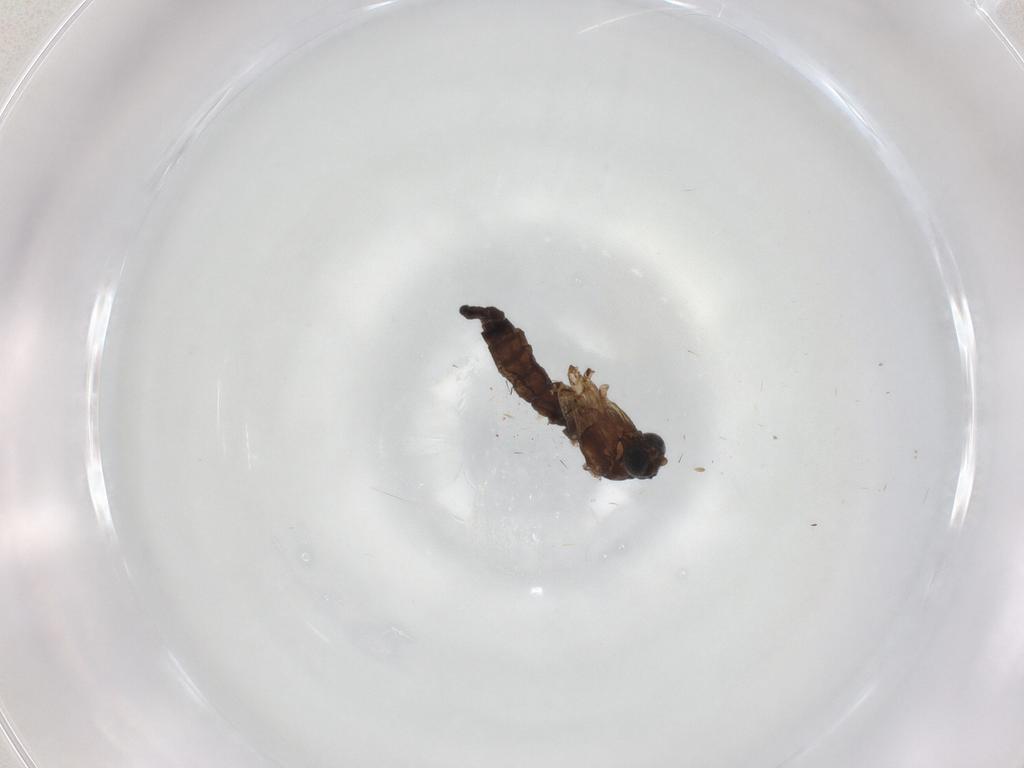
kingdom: Animalia
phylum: Arthropoda
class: Insecta
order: Diptera
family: Sciaridae
